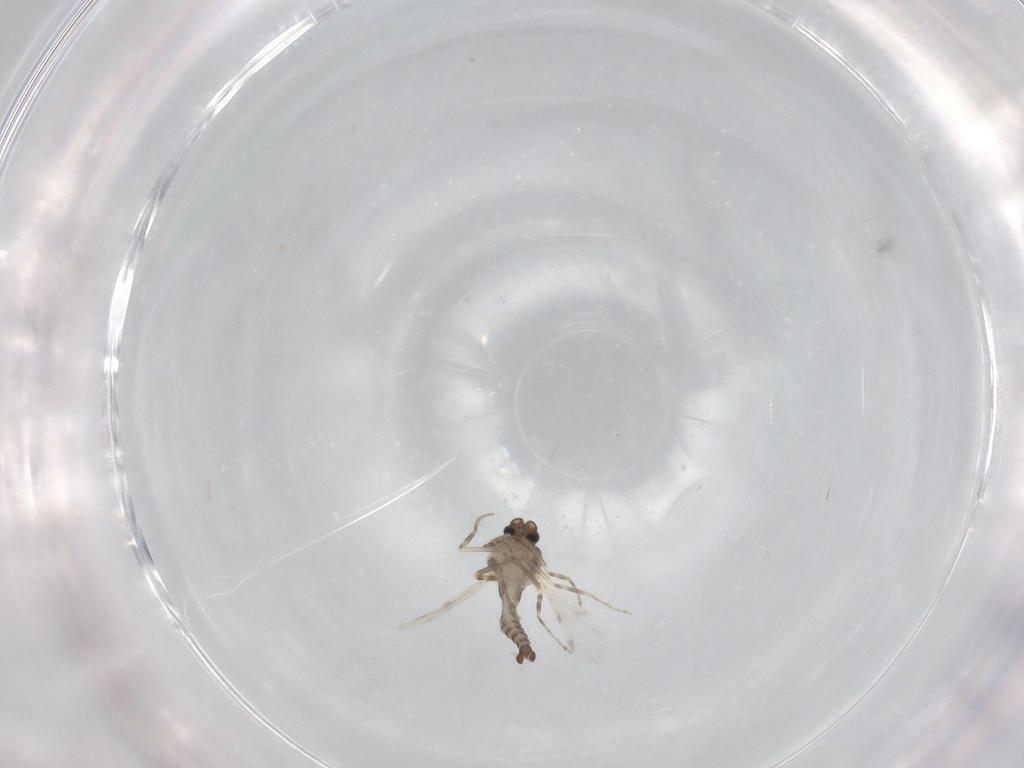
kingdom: Animalia
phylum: Arthropoda
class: Insecta
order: Diptera
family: Ceratopogonidae
